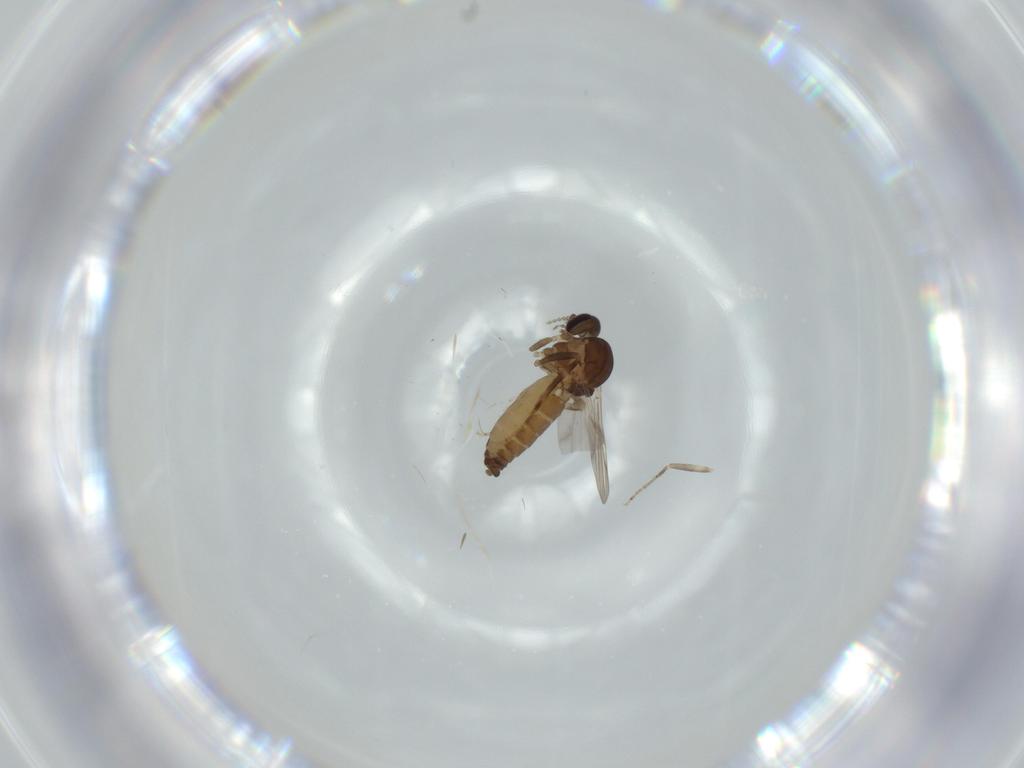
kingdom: Animalia
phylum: Arthropoda
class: Insecta
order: Diptera
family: Ceratopogonidae
